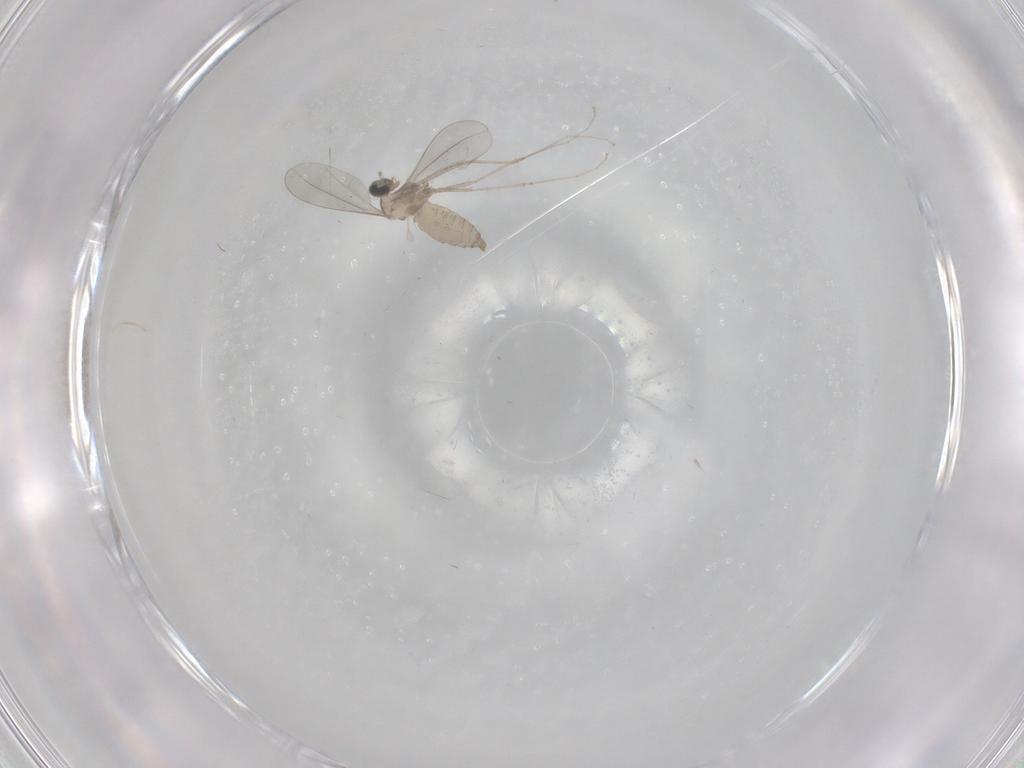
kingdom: Animalia
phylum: Arthropoda
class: Insecta
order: Diptera
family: Cecidomyiidae
